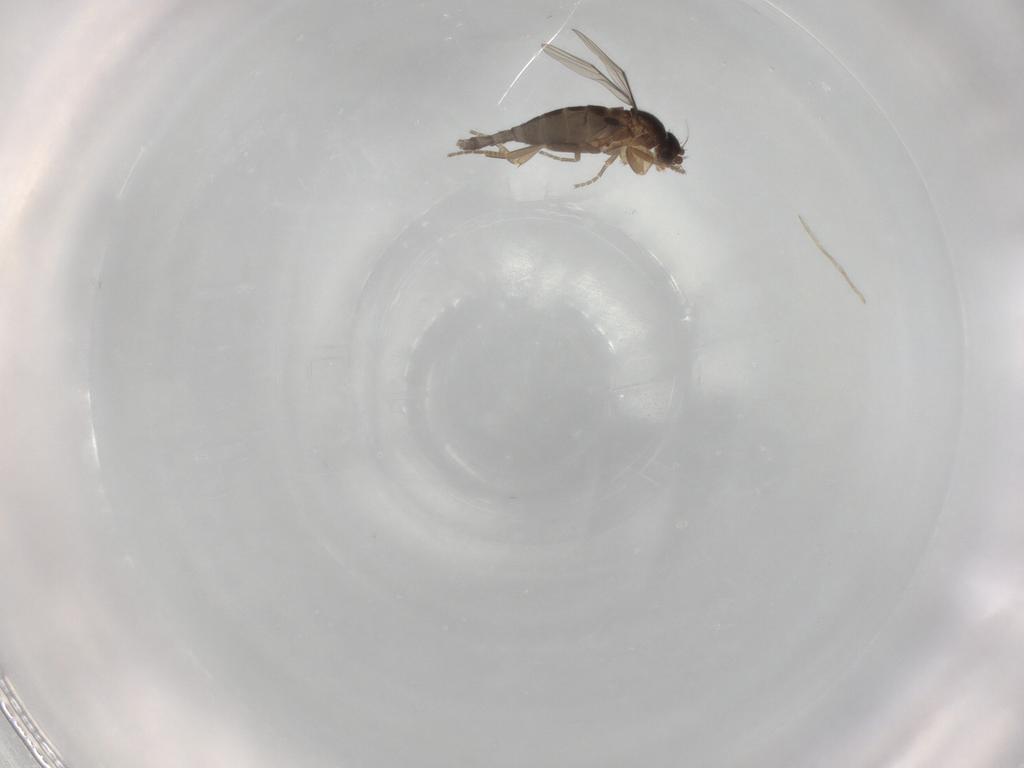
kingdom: Animalia
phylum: Arthropoda
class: Insecta
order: Diptera
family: Phoridae
